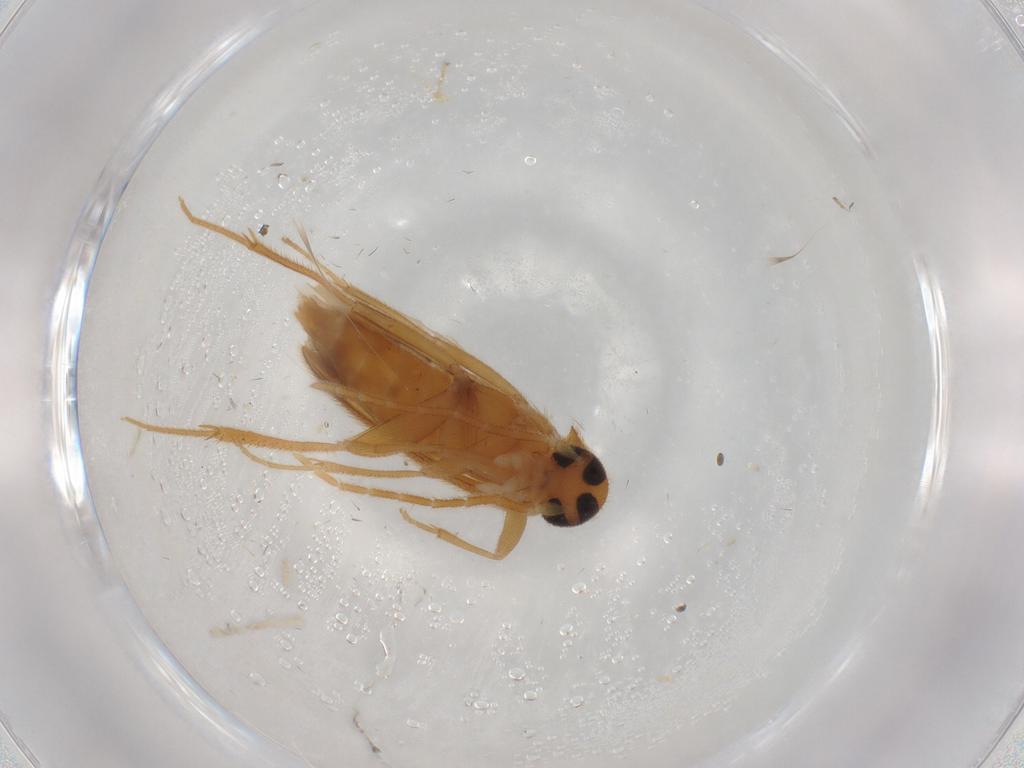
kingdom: Animalia
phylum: Arthropoda
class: Insecta
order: Coleoptera
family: Scraptiidae
